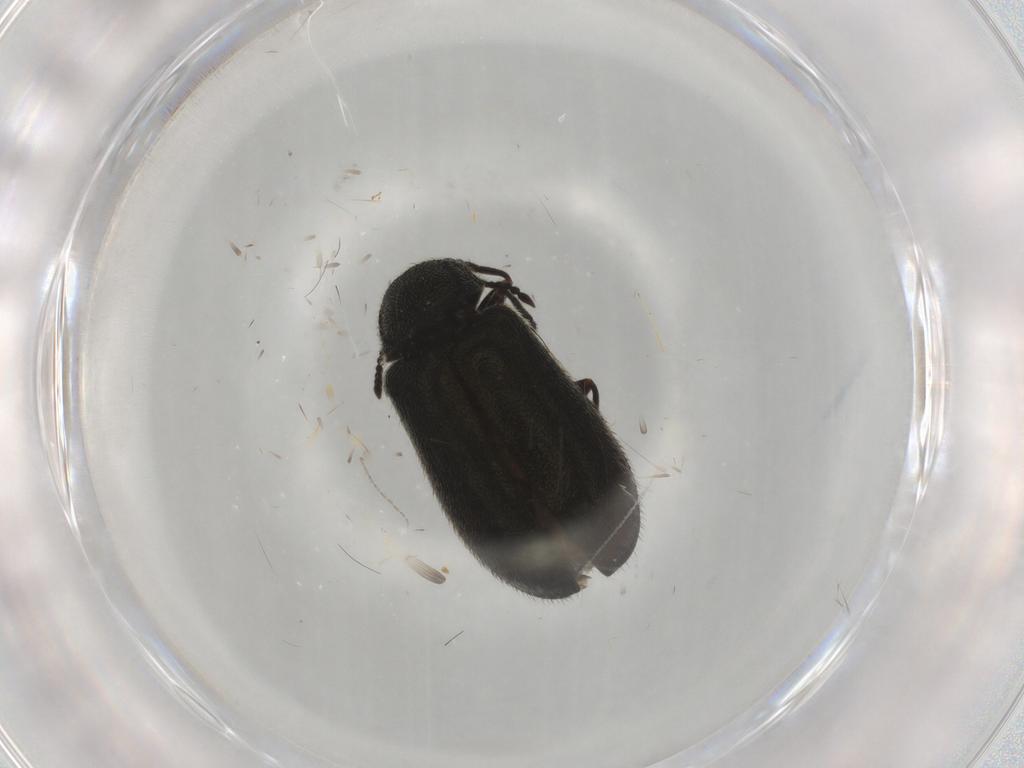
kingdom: Animalia
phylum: Arthropoda
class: Insecta
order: Coleoptera
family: Melyridae
